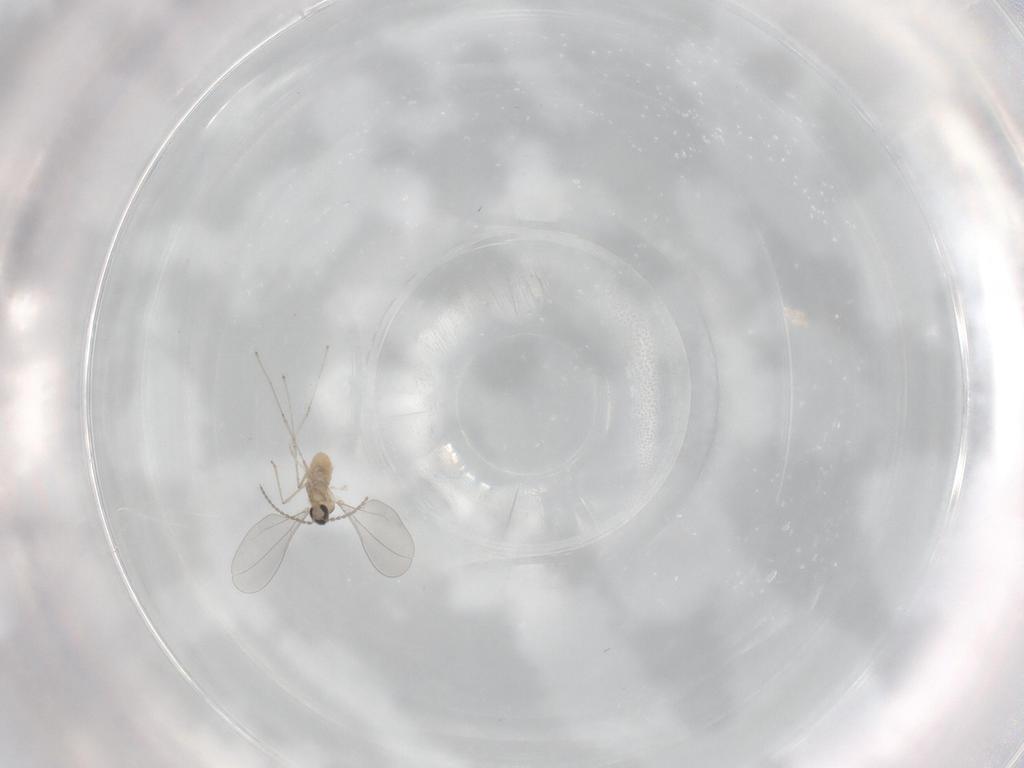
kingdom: Animalia
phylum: Arthropoda
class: Insecta
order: Diptera
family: Cecidomyiidae
